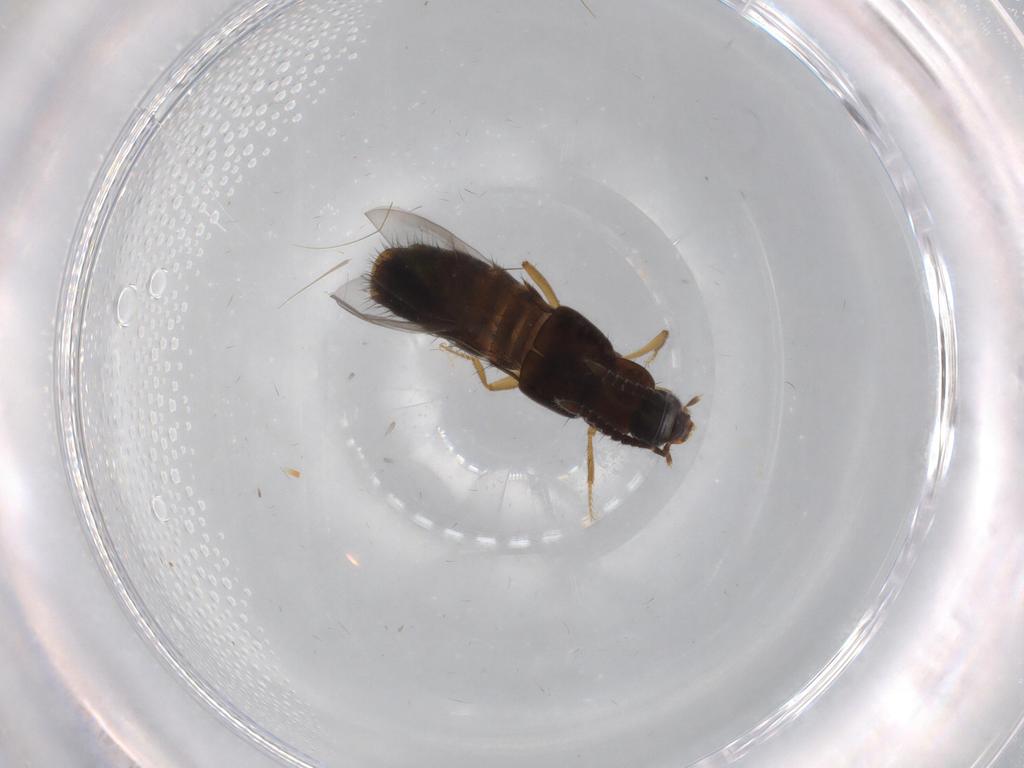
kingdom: Animalia
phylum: Arthropoda
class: Insecta
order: Coleoptera
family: Staphylinidae
